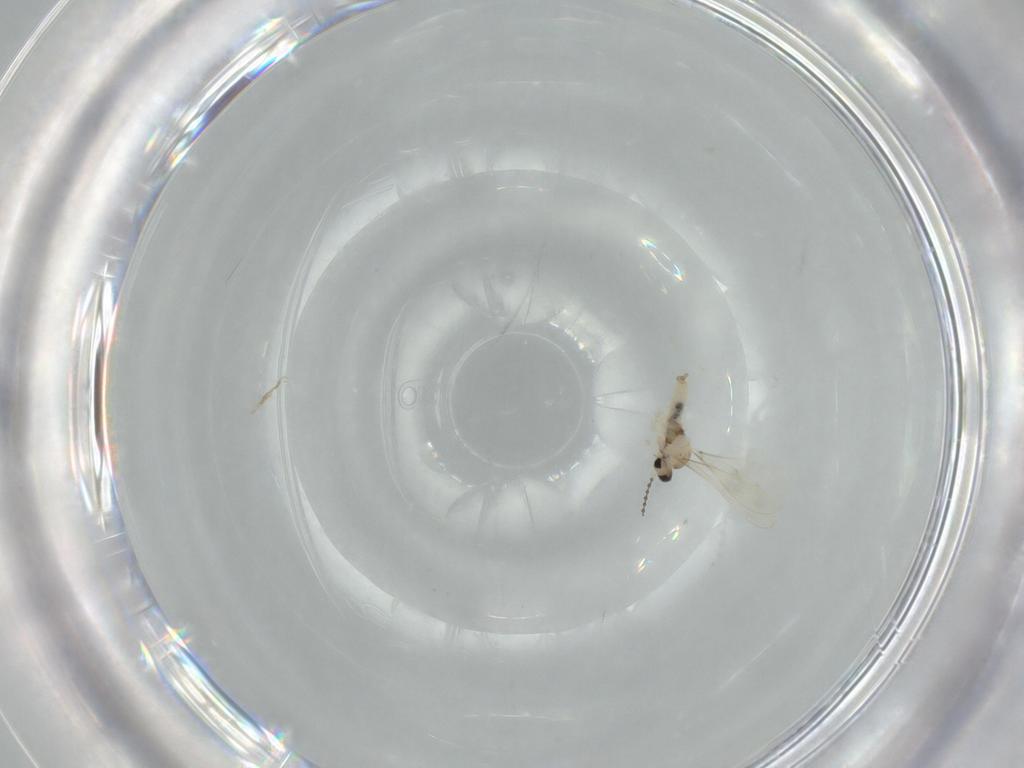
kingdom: Animalia
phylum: Arthropoda
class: Insecta
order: Diptera
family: Cecidomyiidae
